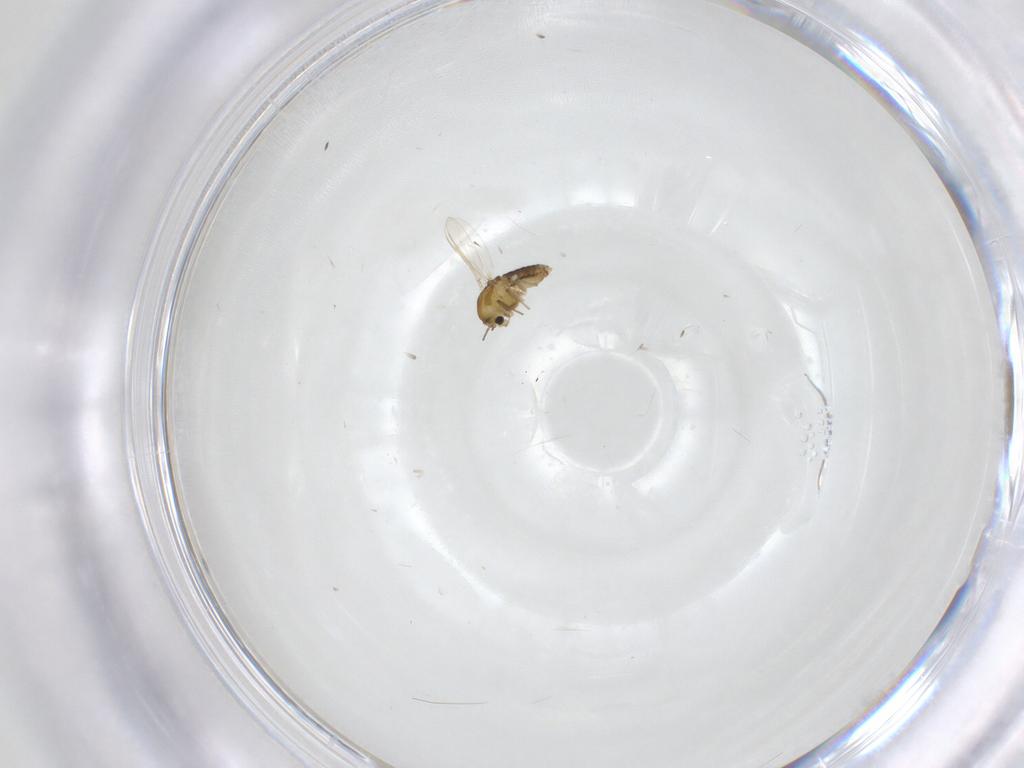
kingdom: Animalia
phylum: Arthropoda
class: Insecta
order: Diptera
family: Chironomidae
